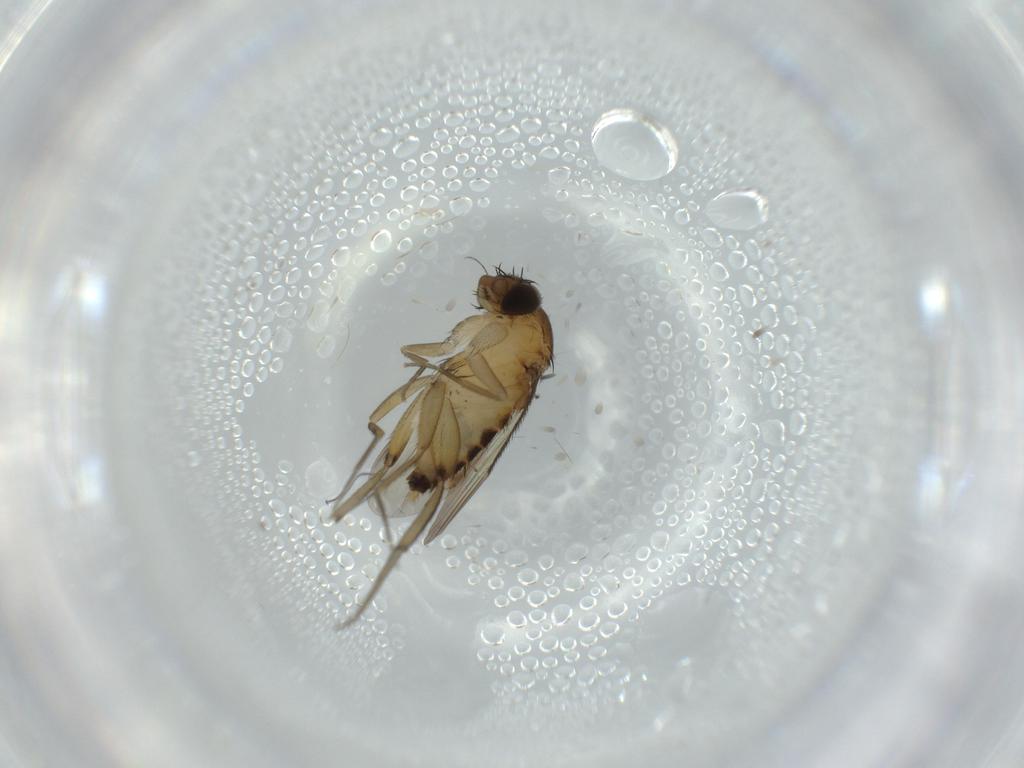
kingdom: Animalia
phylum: Arthropoda
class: Insecta
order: Diptera
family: Phoridae
